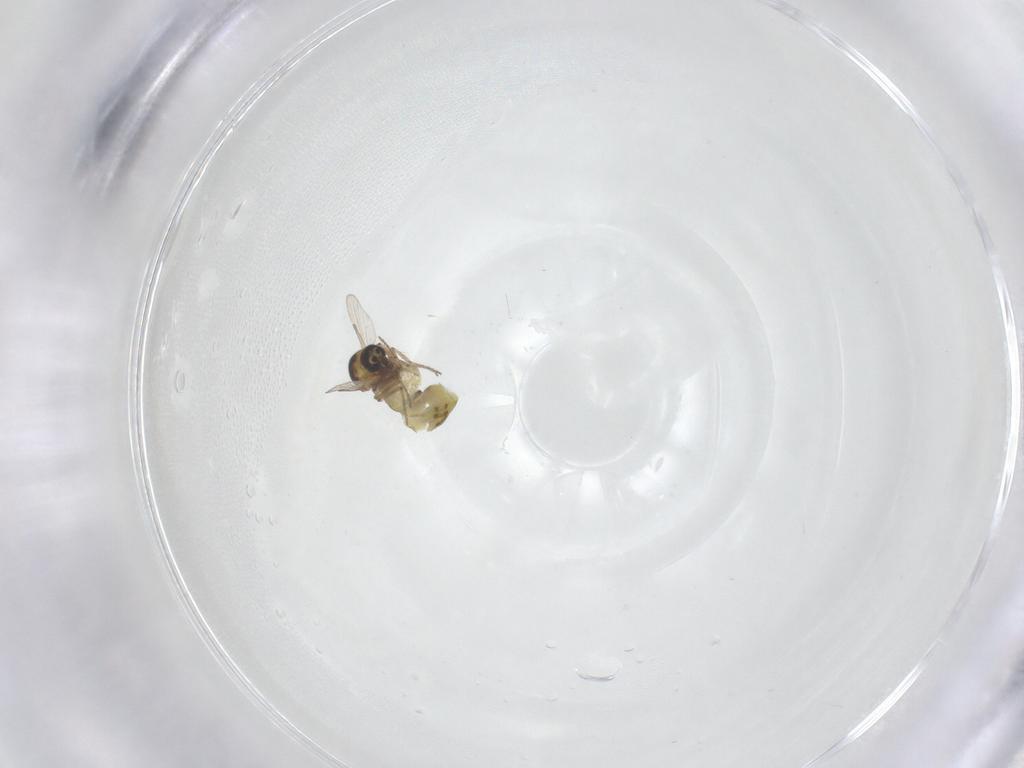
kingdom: Animalia
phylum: Arthropoda
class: Insecta
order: Diptera
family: Ceratopogonidae
